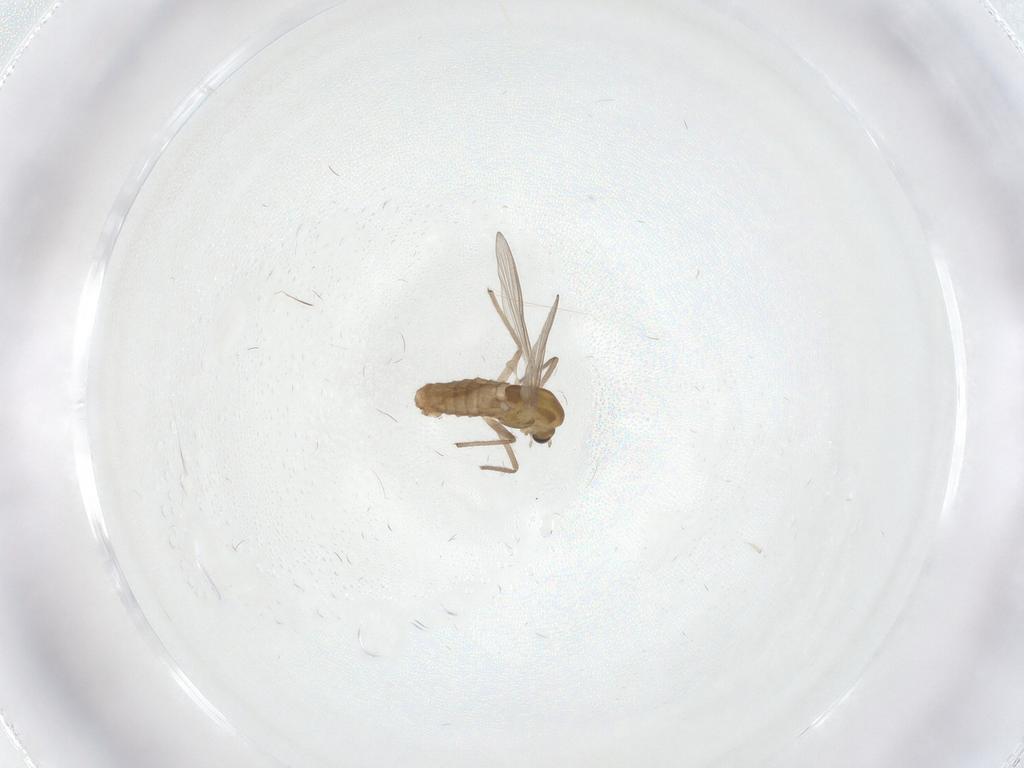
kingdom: Animalia
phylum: Arthropoda
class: Insecta
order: Diptera
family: Chironomidae
